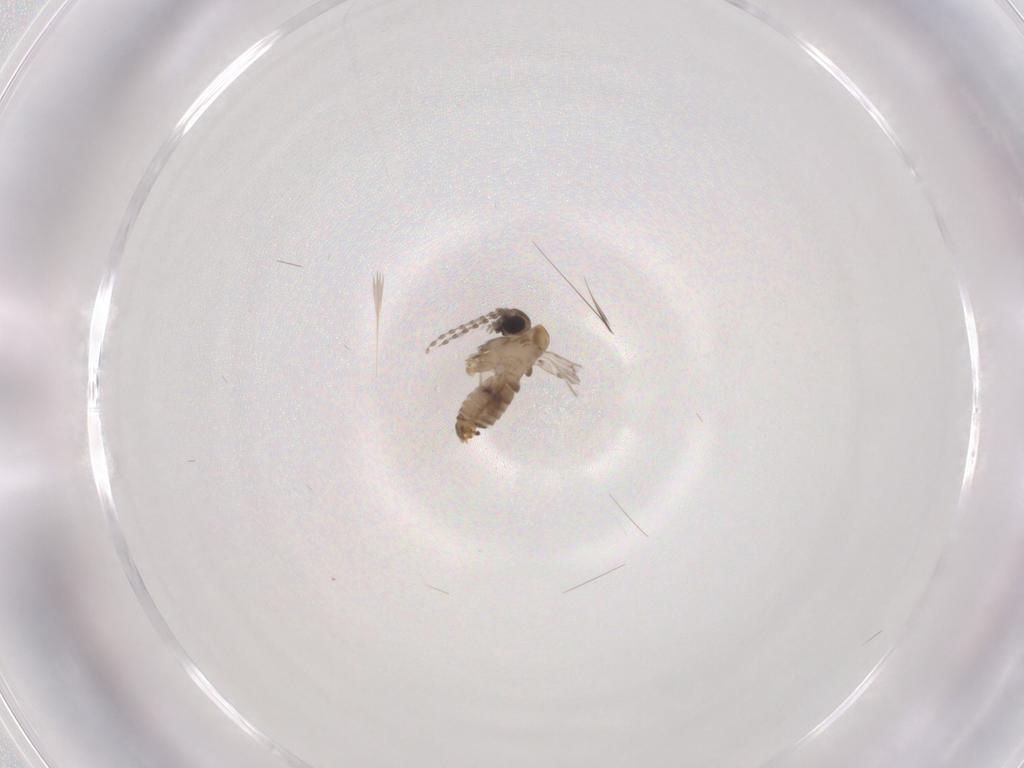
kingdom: Animalia
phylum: Arthropoda
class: Insecta
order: Diptera
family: Psychodidae
